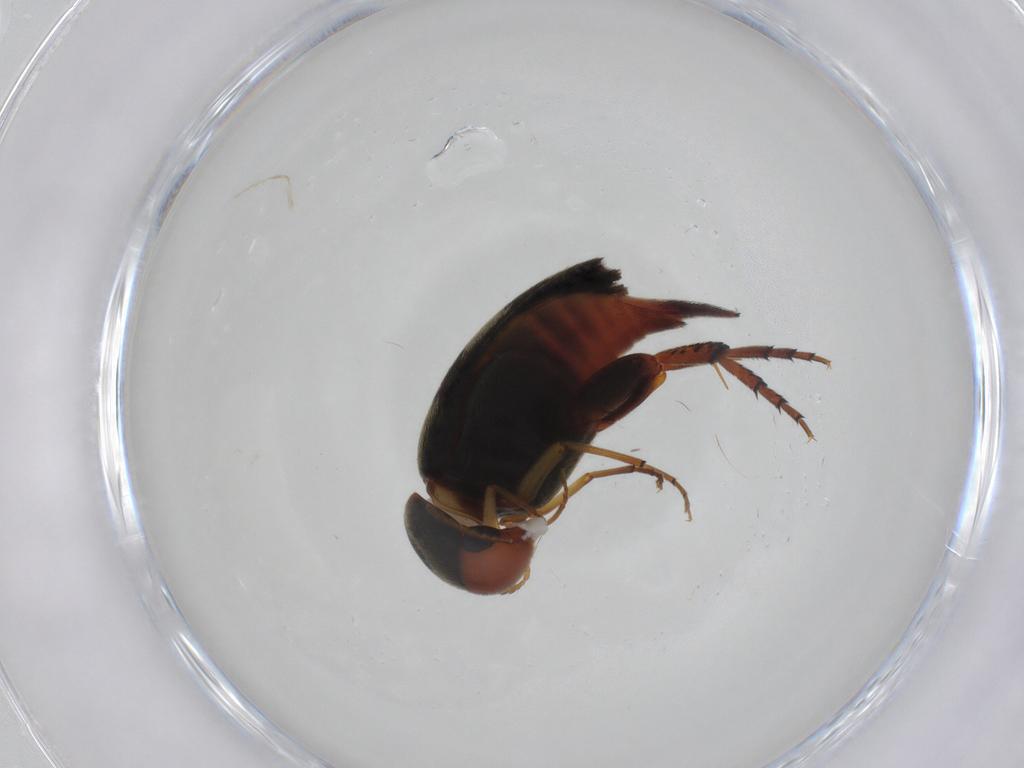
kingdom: Animalia
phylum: Arthropoda
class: Insecta
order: Coleoptera
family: Mordellidae
